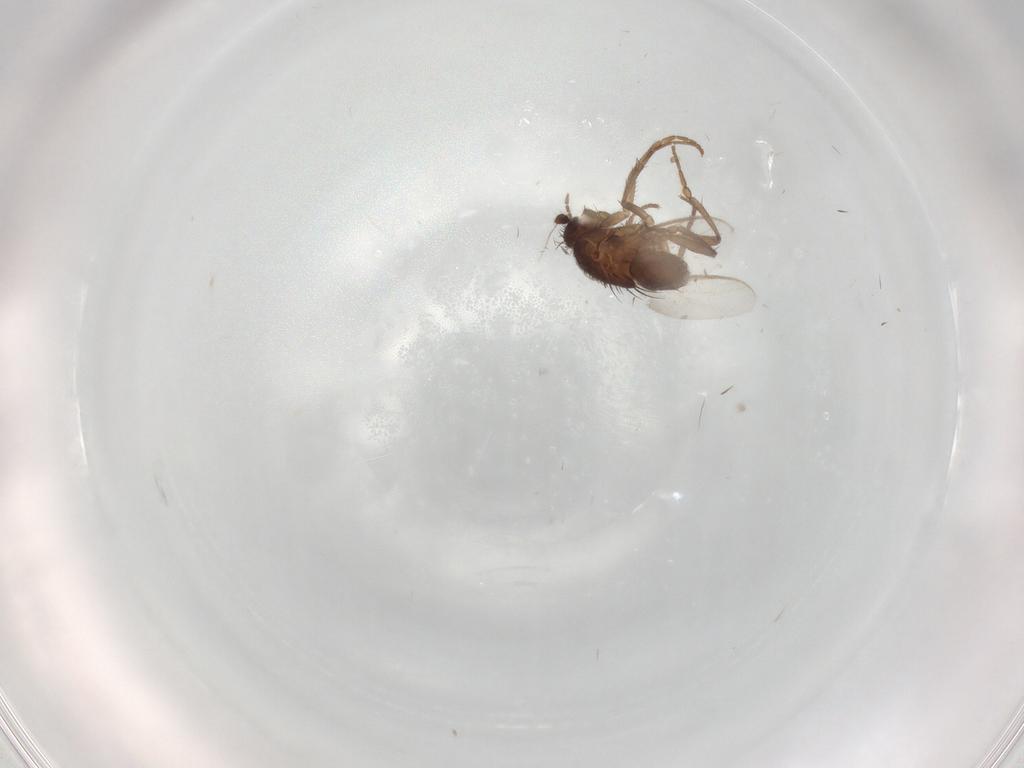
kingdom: Animalia
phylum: Arthropoda
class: Insecta
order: Diptera
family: Sphaeroceridae
